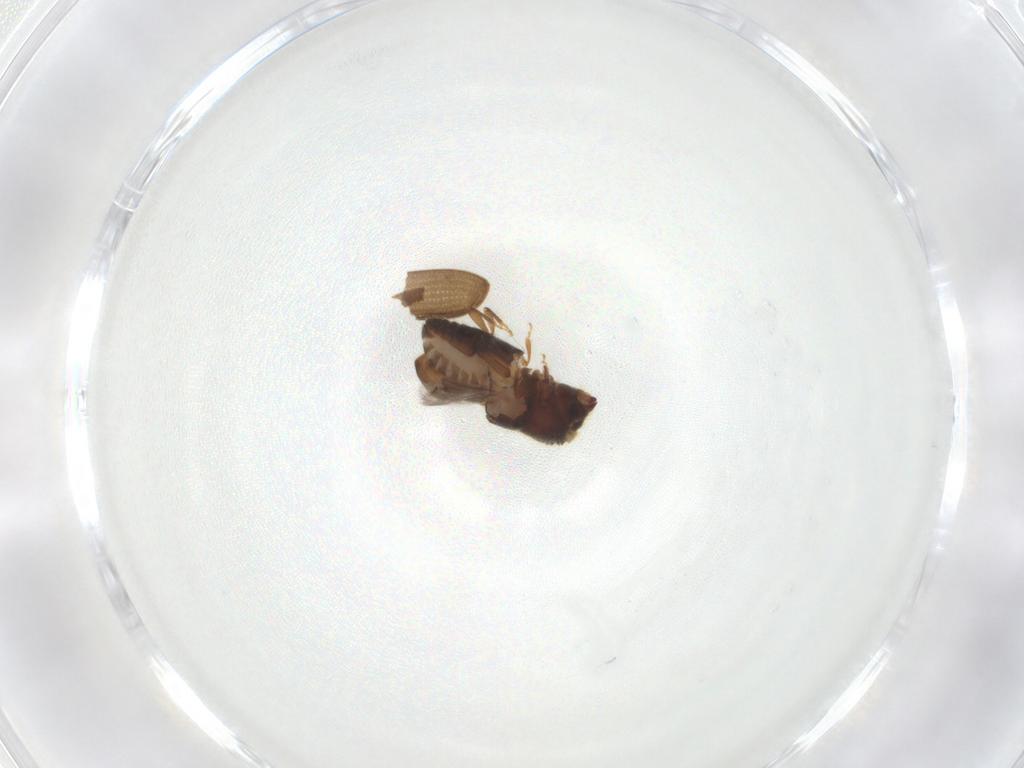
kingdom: Animalia
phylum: Arthropoda
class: Insecta
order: Coleoptera
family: Curculionidae
